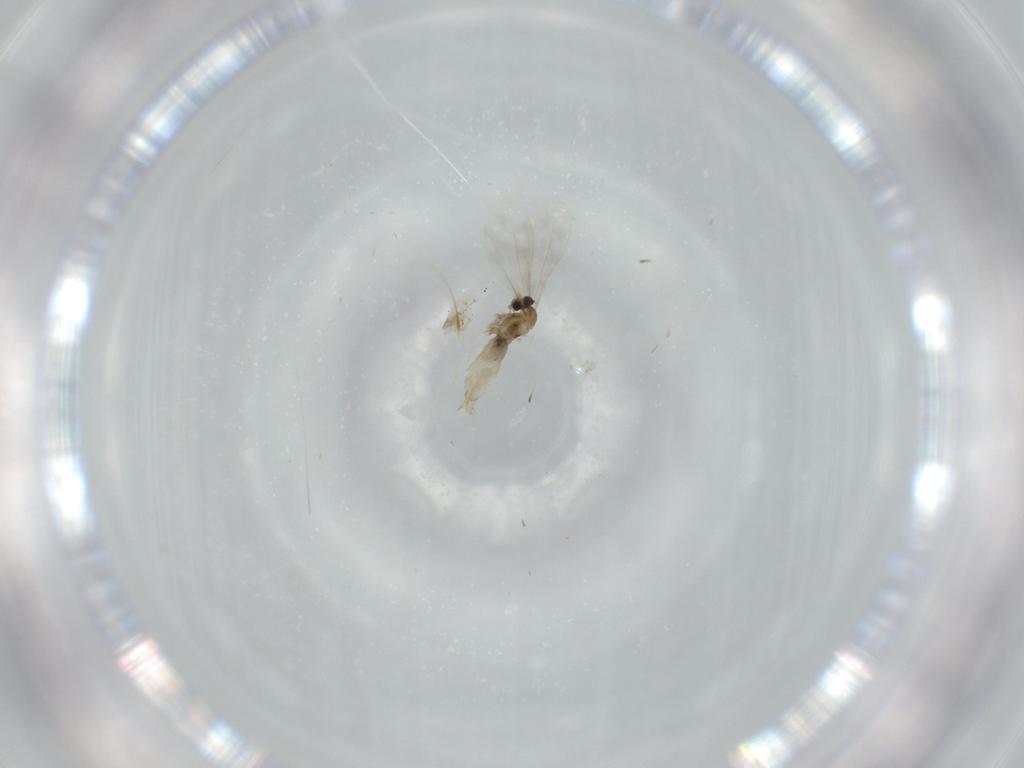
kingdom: Animalia
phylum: Arthropoda
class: Insecta
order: Diptera
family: Cecidomyiidae
